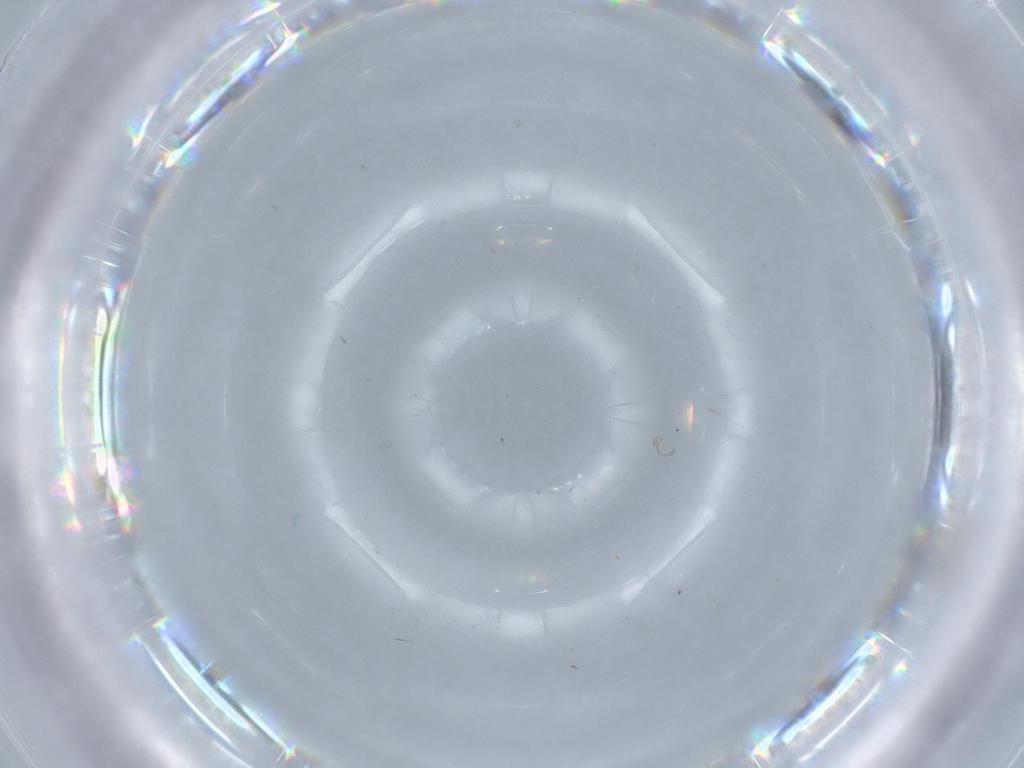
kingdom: Animalia
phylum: Arthropoda
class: Insecta
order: Diptera
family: Cecidomyiidae
